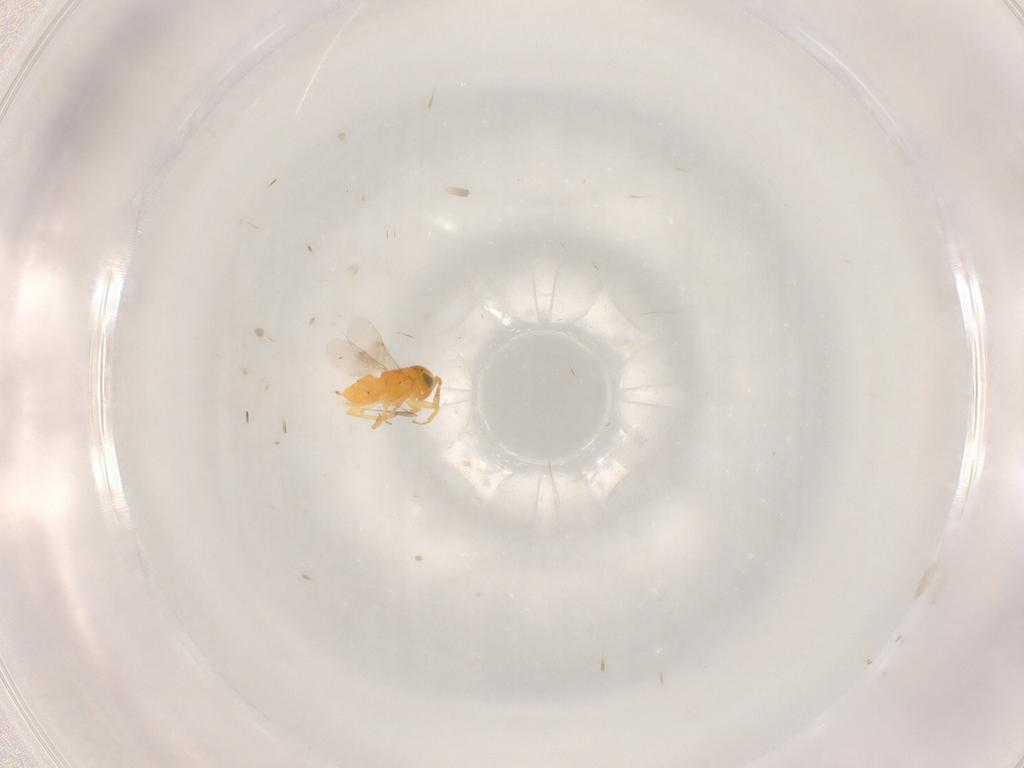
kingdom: Animalia
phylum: Arthropoda
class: Insecta
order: Hymenoptera
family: Encyrtidae
